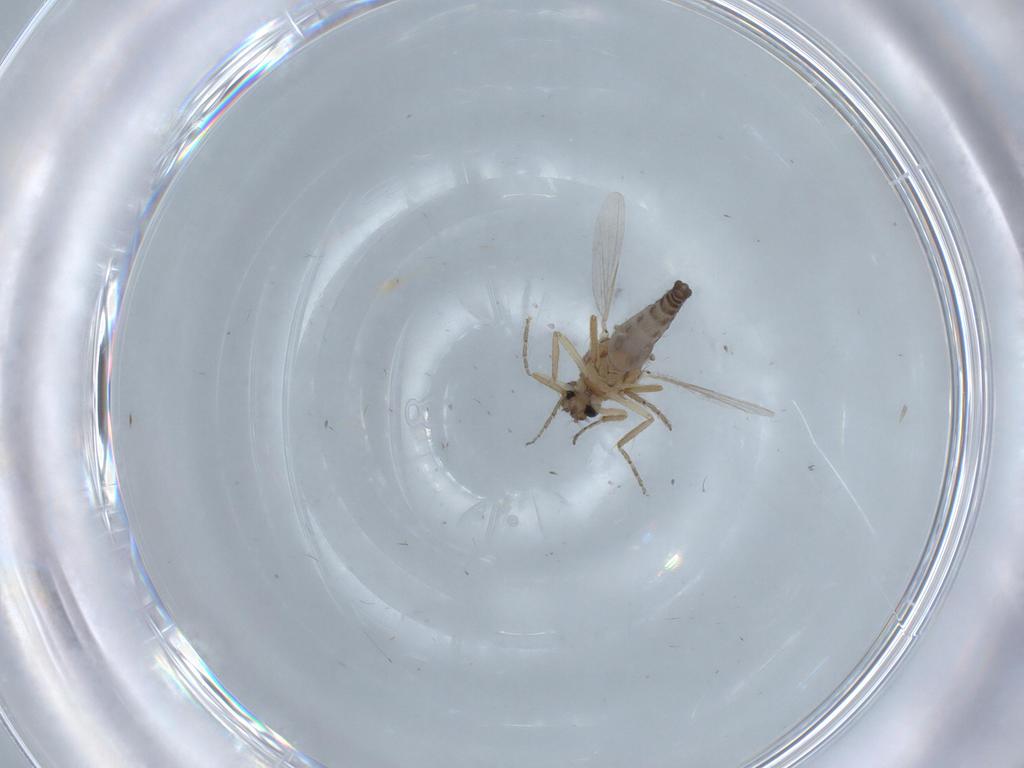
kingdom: Animalia
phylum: Arthropoda
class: Insecta
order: Diptera
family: Ceratopogonidae
